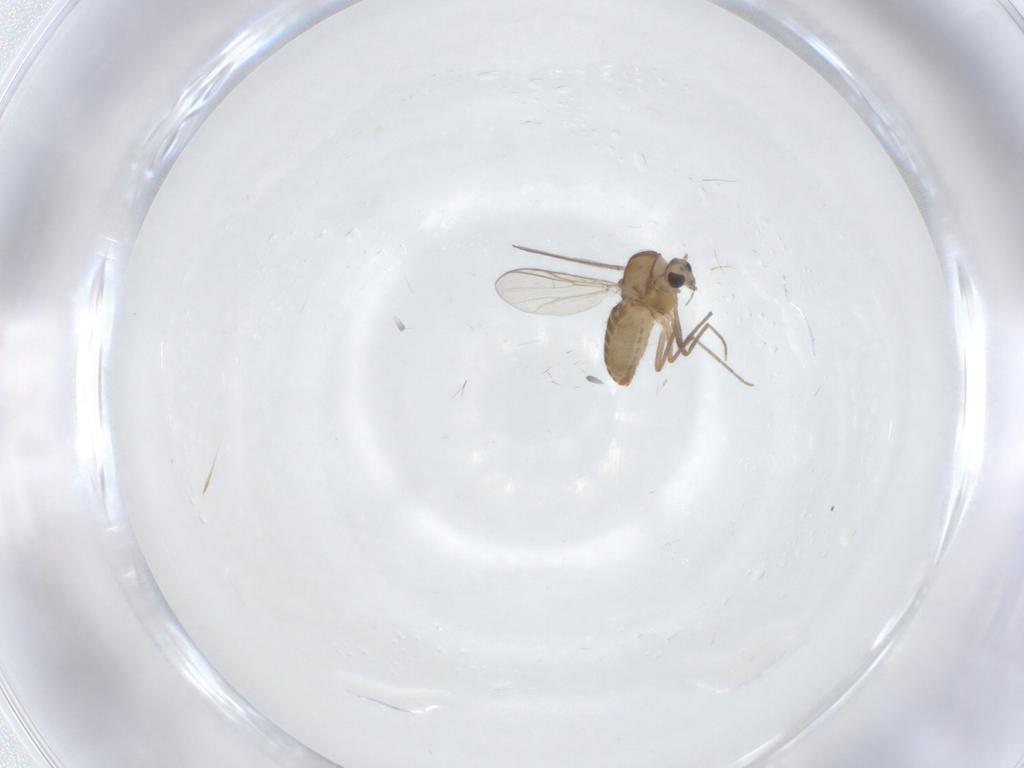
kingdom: Animalia
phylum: Arthropoda
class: Insecta
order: Diptera
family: Chironomidae
